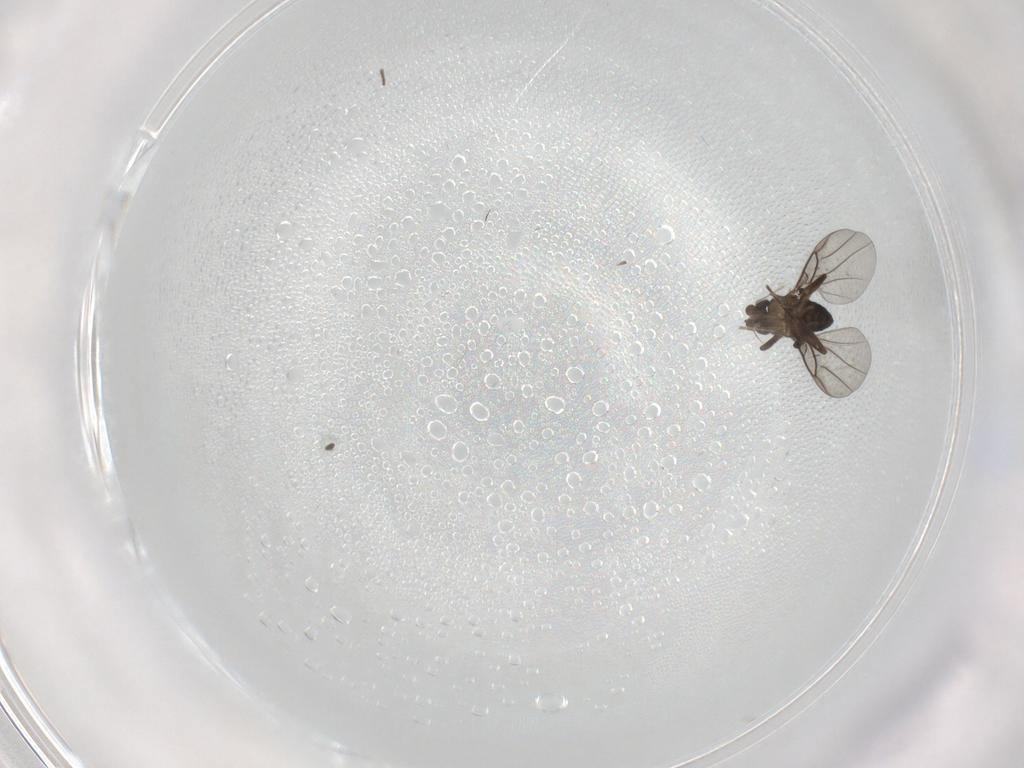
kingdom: Animalia
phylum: Arthropoda
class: Insecta
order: Diptera
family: Sphaeroceridae
